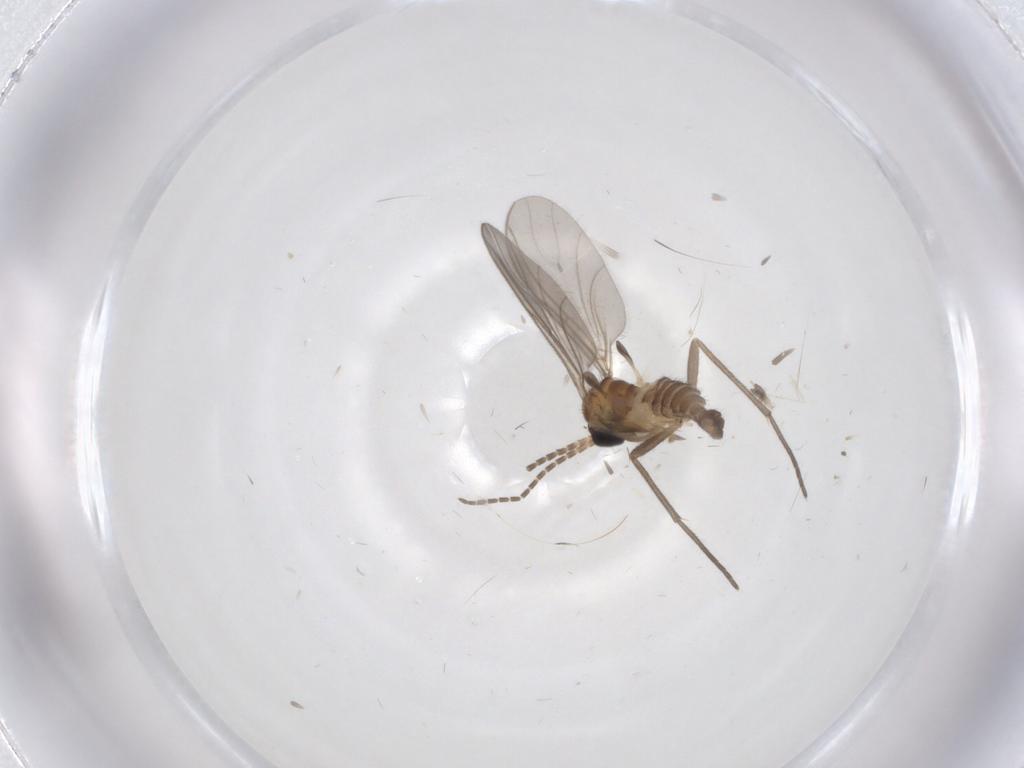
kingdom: Animalia
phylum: Arthropoda
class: Insecta
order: Diptera
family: Sciaridae
